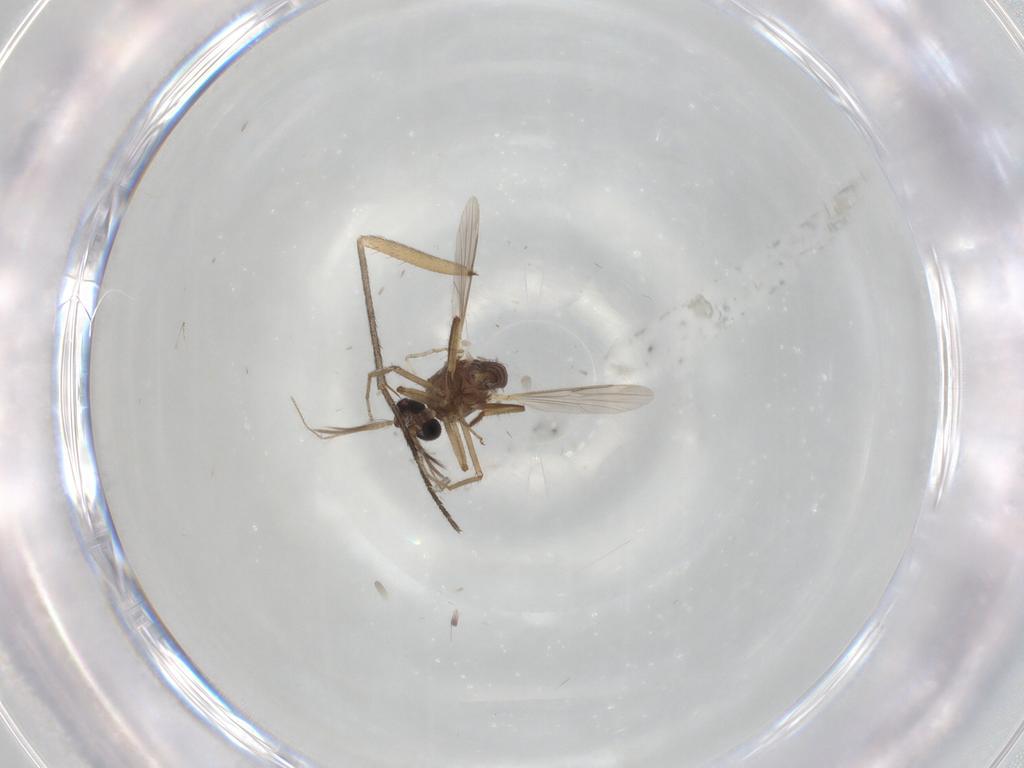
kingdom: Animalia
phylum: Arthropoda
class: Insecta
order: Diptera
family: Ceratopogonidae
